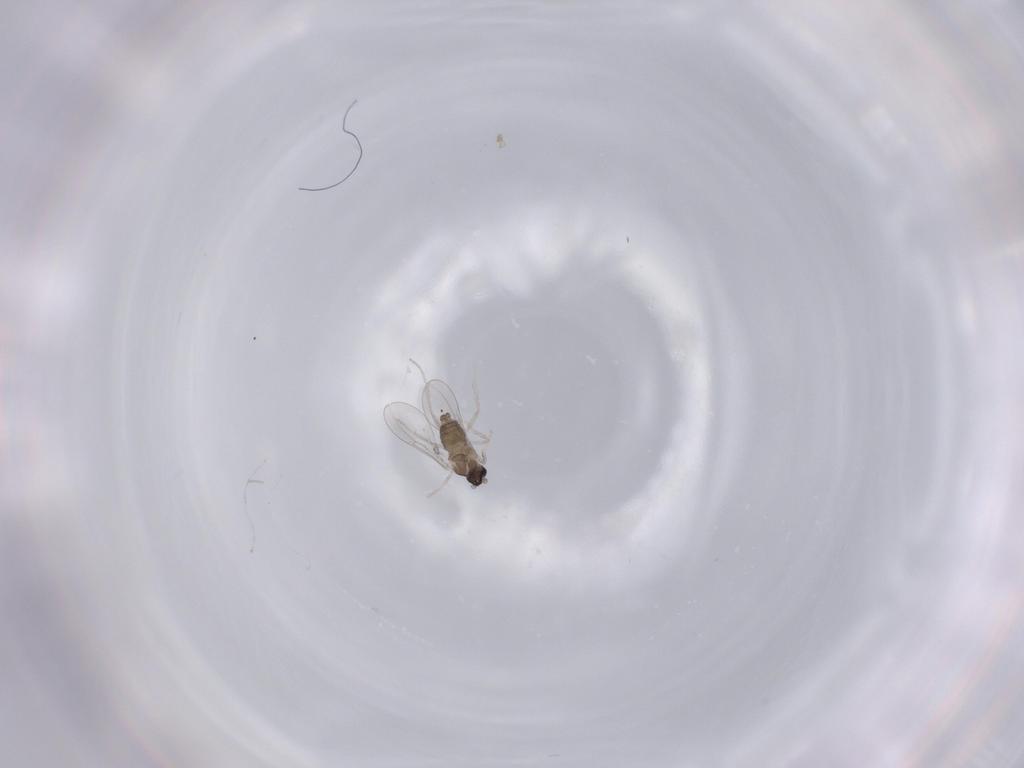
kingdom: Animalia
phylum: Arthropoda
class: Insecta
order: Diptera
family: Cecidomyiidae
